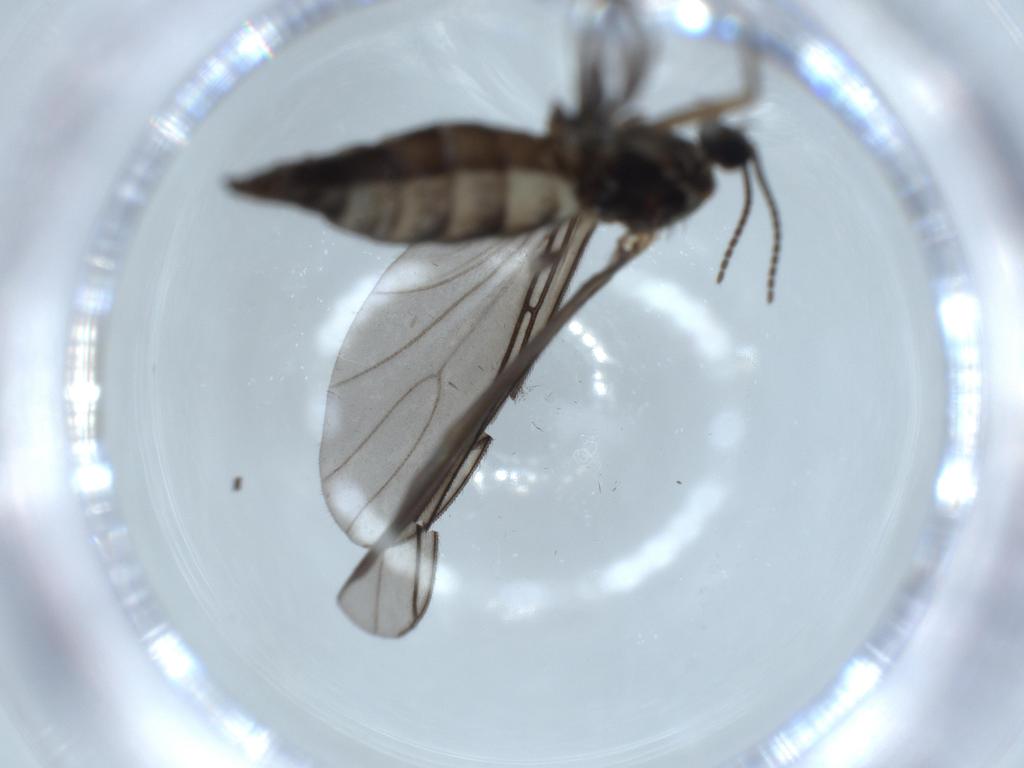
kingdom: Animalia
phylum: Arthropoda
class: Insecta
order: Diptera
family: Sciaridae
